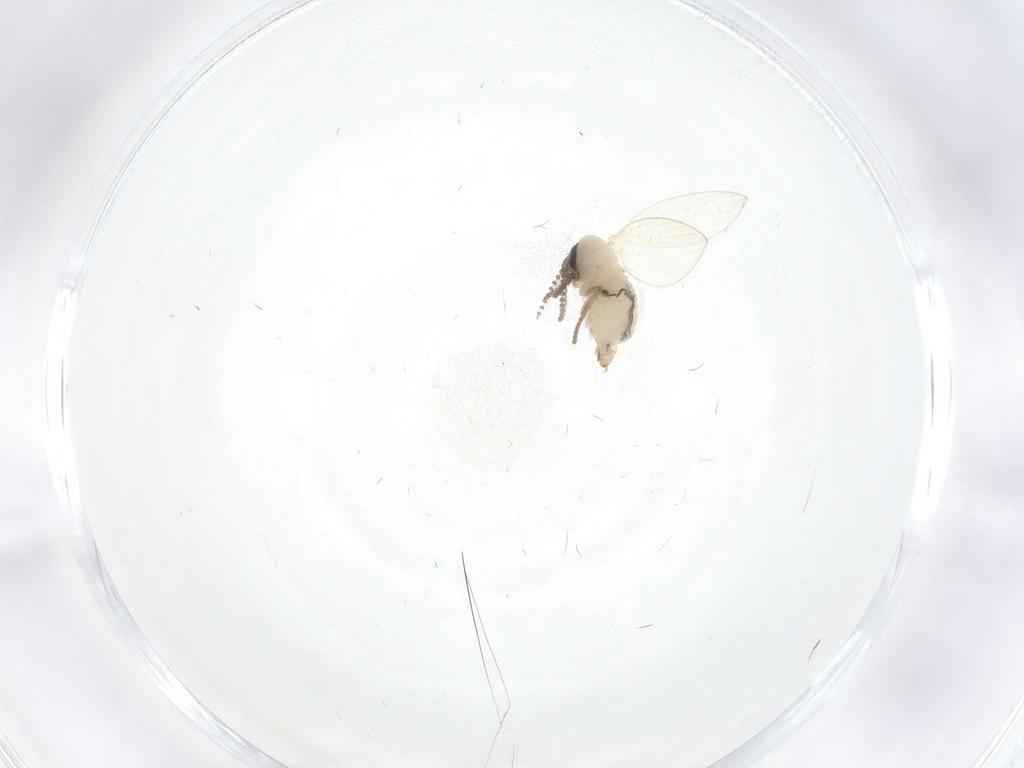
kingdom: Animalia
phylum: Arthropoda
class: Insecta
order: Diptera
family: Psychodidae
